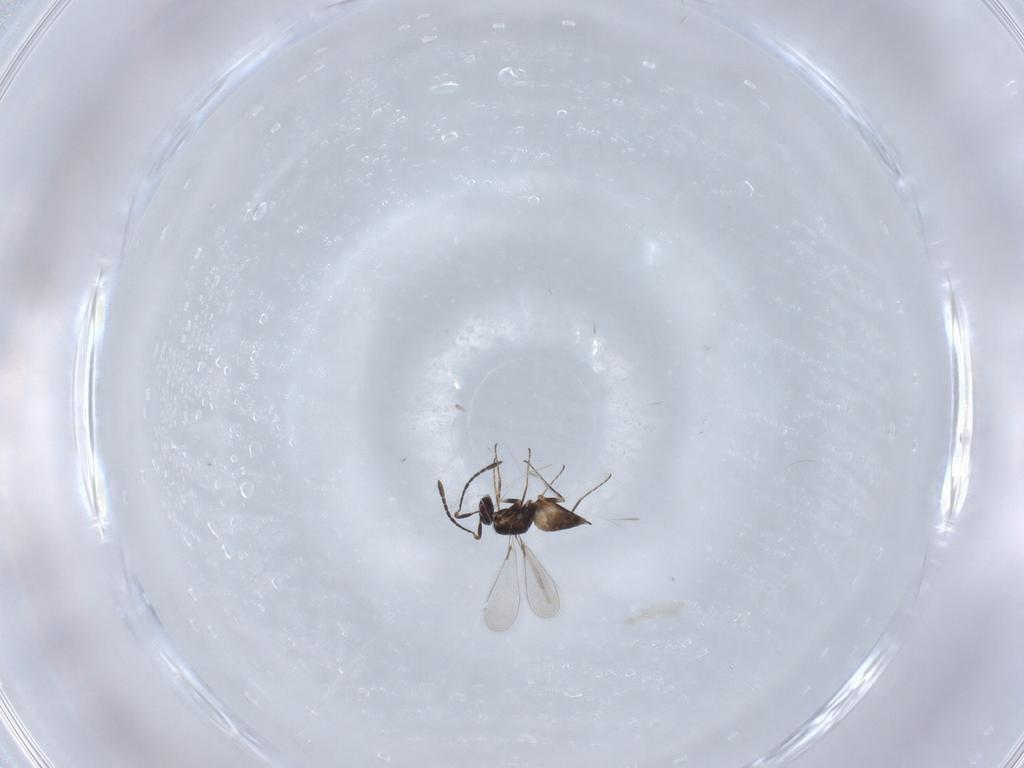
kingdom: Animalia
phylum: Arthropoda
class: Insecta
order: Hymenoptera
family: Mymaridae
